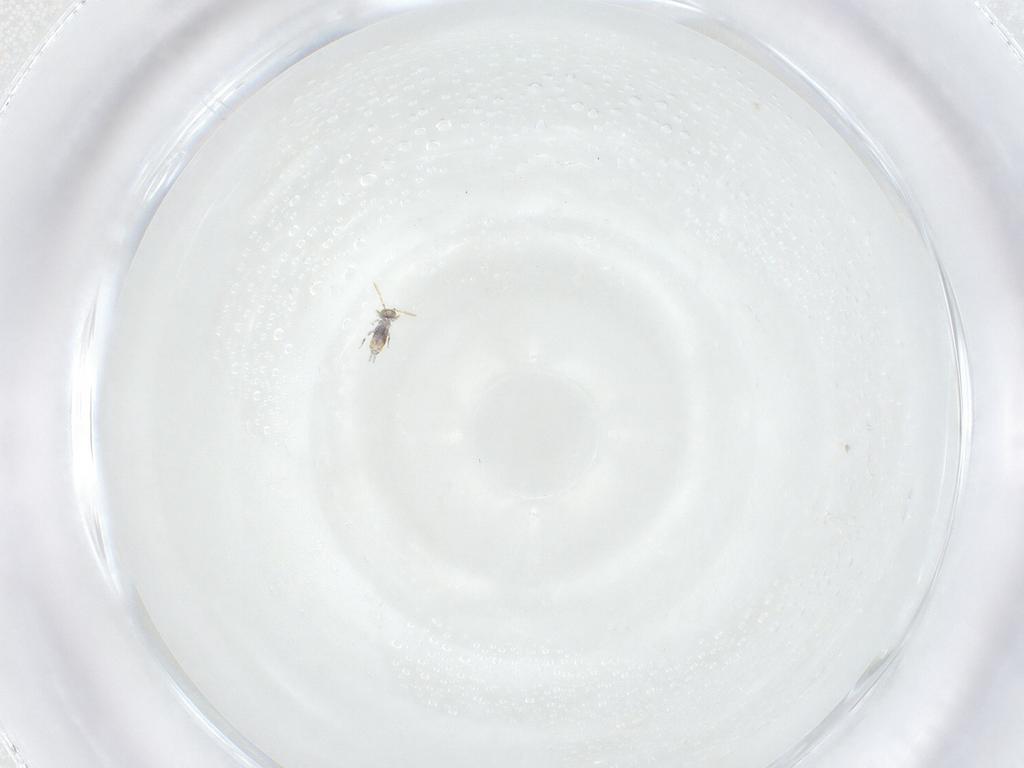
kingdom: Animalia
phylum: Arthropoda
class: Collembola
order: Symphypleona
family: Katiannidae
